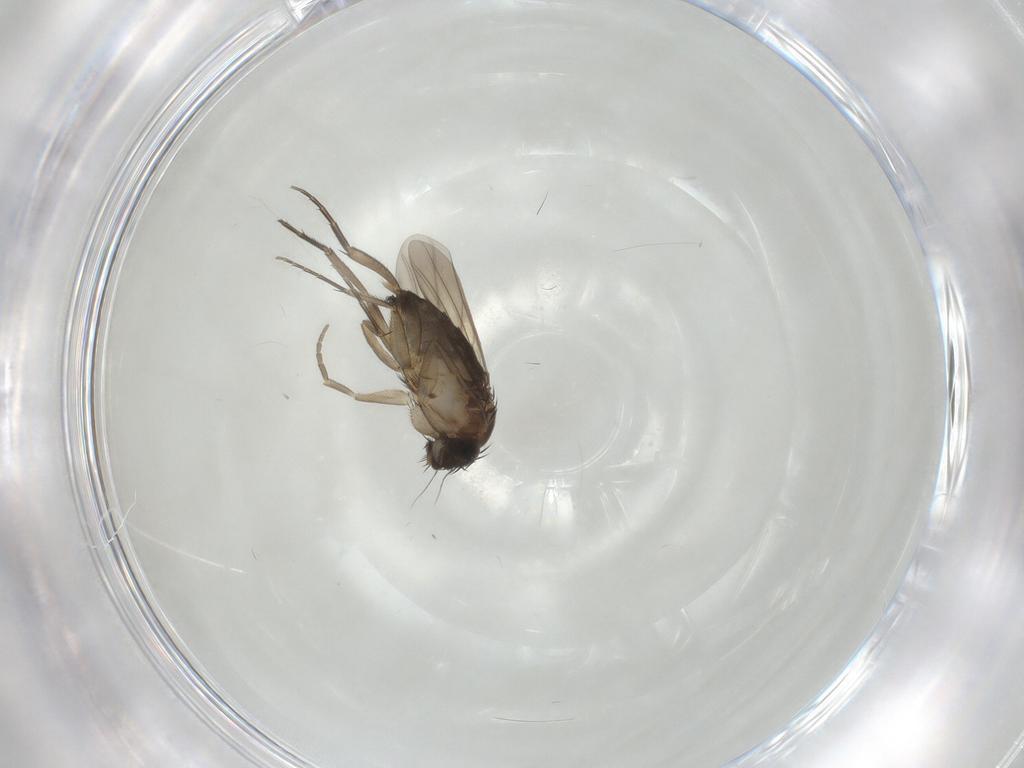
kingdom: Animalia
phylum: Arthropoda
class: Insecta
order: Diptera
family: Phoridae
